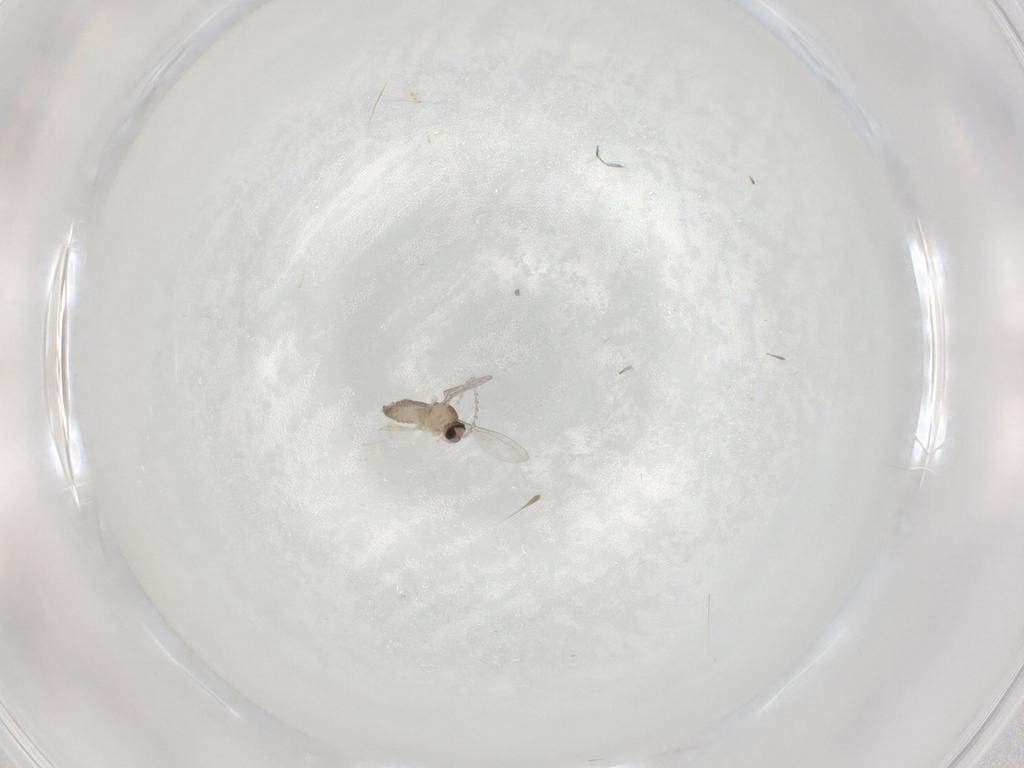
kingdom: Animalia
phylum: Arthropoda
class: Insecta
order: Diptera
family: Cecidomyiidae
